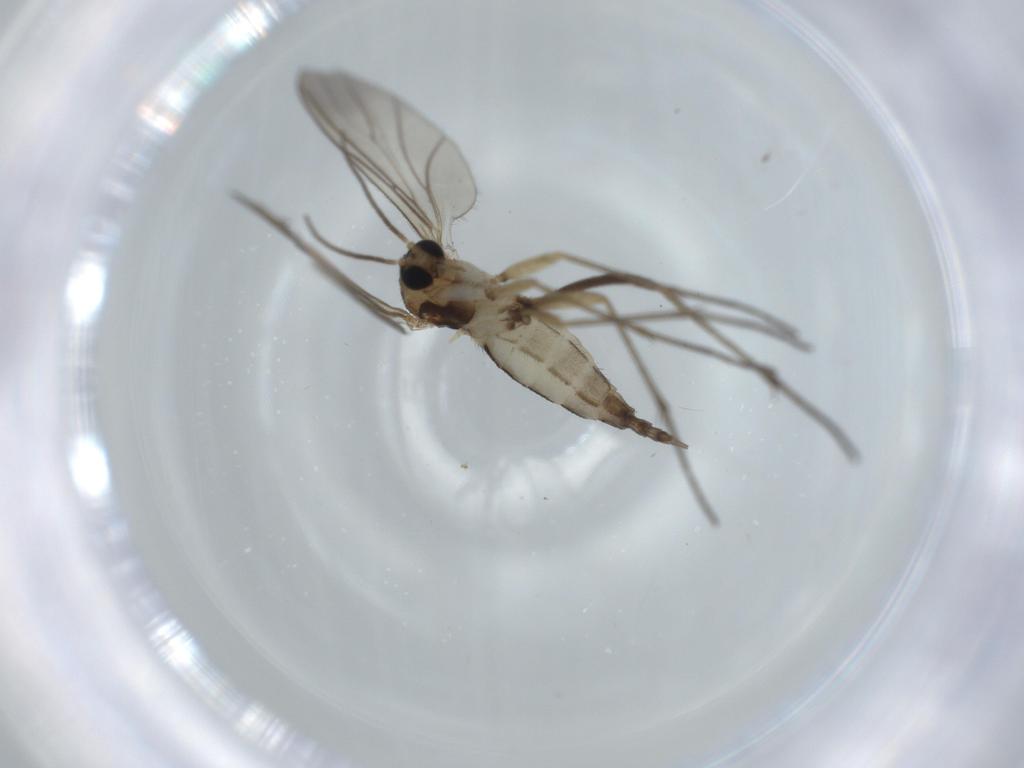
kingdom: Animalia
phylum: Arthropoda
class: Insecta
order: Diptera
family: Sciaridae
